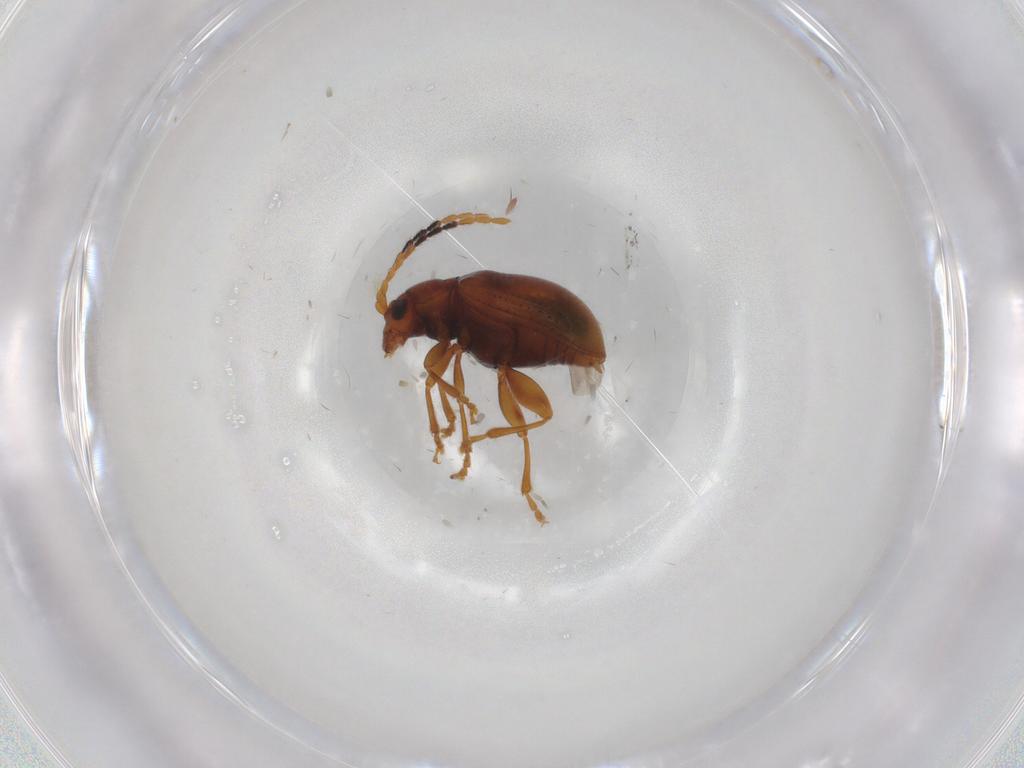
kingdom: Animalia
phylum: Arthropoda
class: Insecta
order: Coleoptera
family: Chrysomelidae
